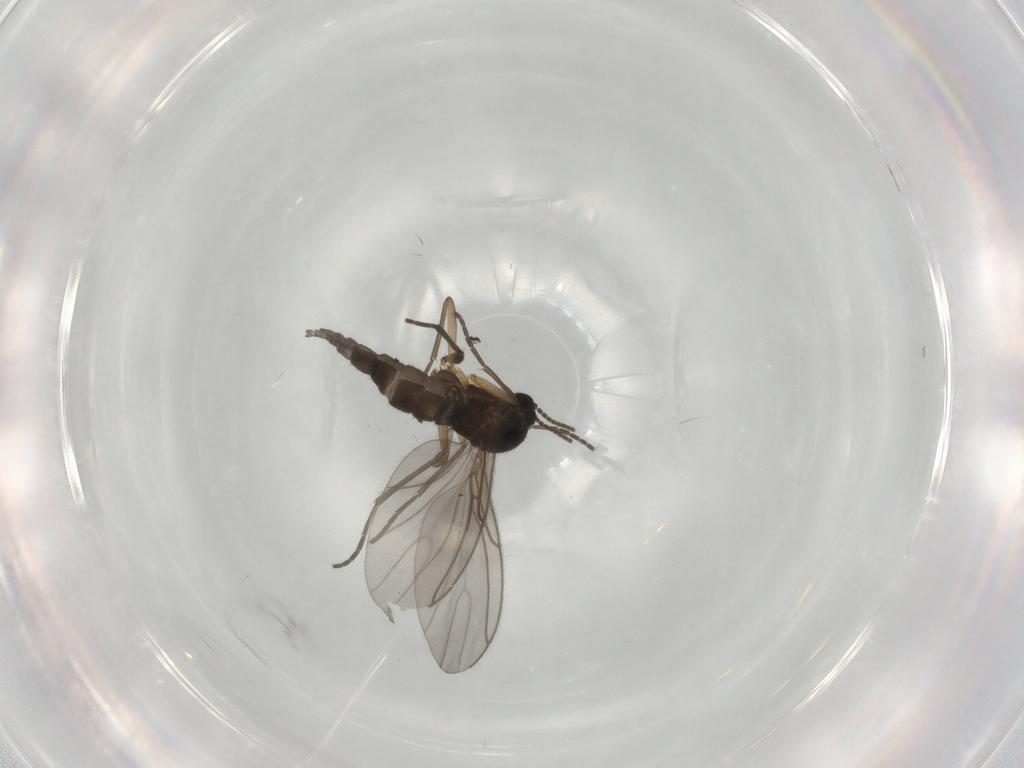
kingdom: Animalia
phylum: Arthropoda
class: Insecta
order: Diptera
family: Sciaridae
